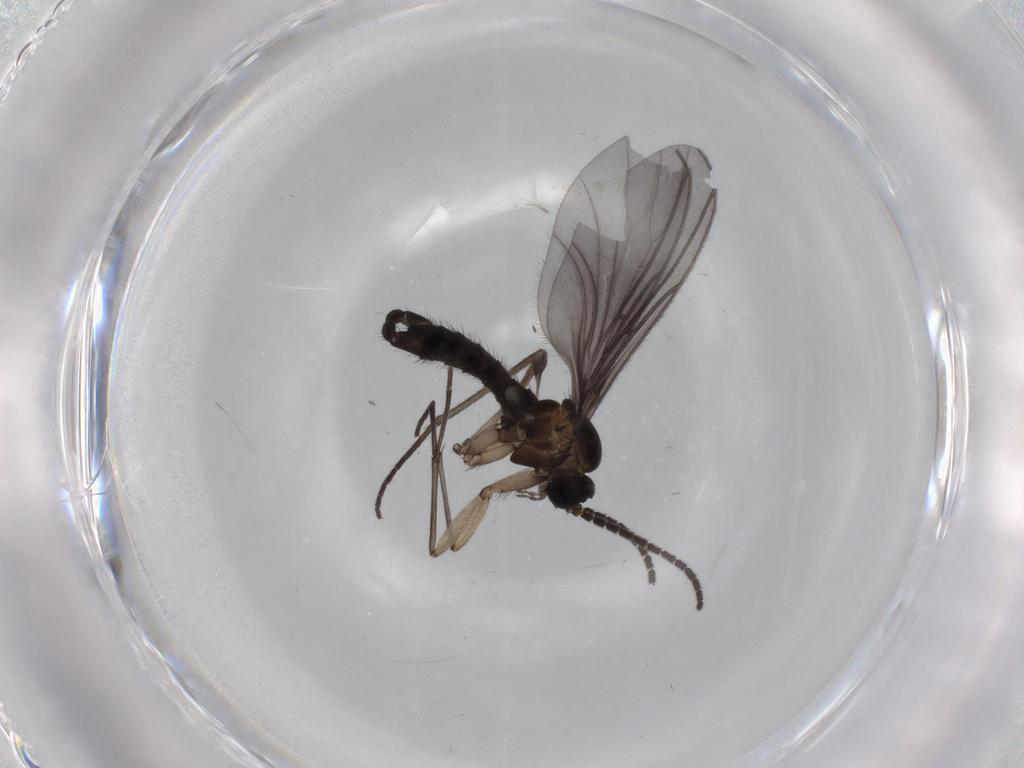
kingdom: Animalia
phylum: Arthropoda
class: Insecta
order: Diptera
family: Sciaridae
